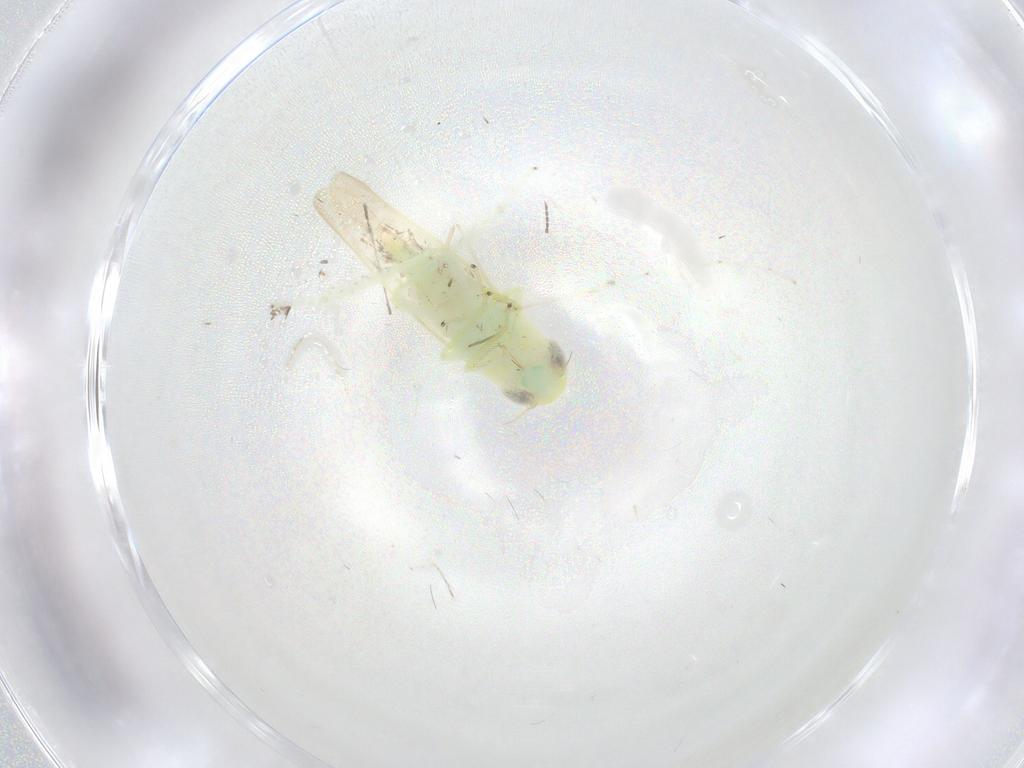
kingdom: Animalia
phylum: Arthropoda
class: Insecta
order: Hemiptera
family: Cicadellidae
